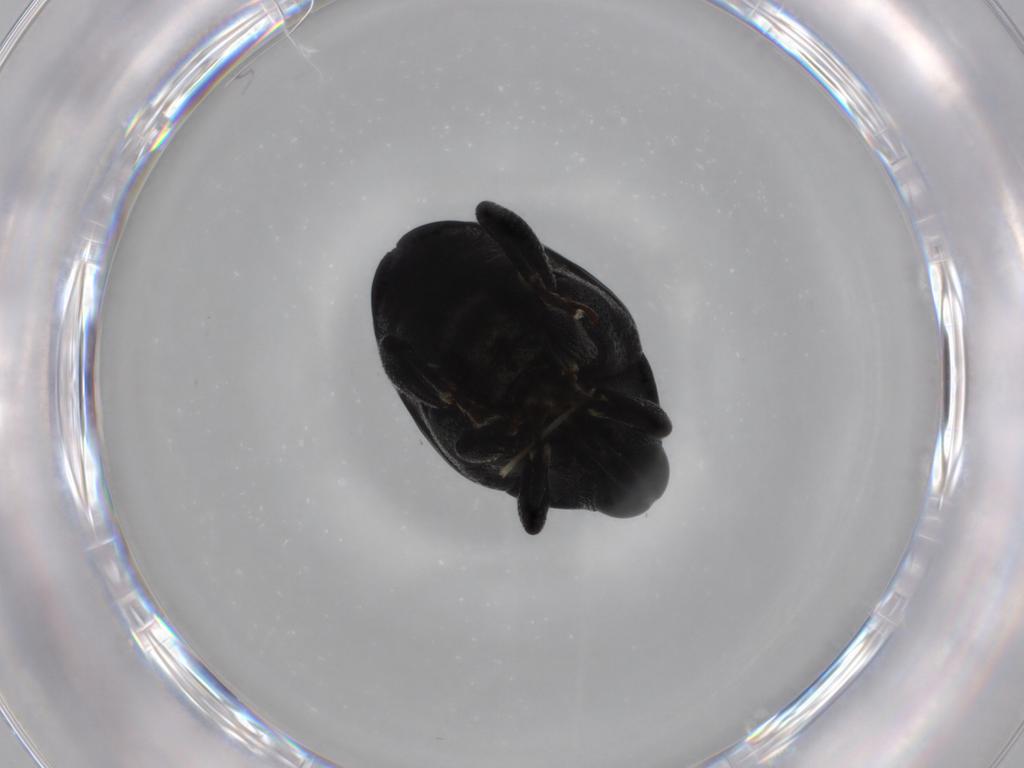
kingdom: Animalia
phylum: Arthropoda
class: Insecta
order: Coleoptera
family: Curculionidae
